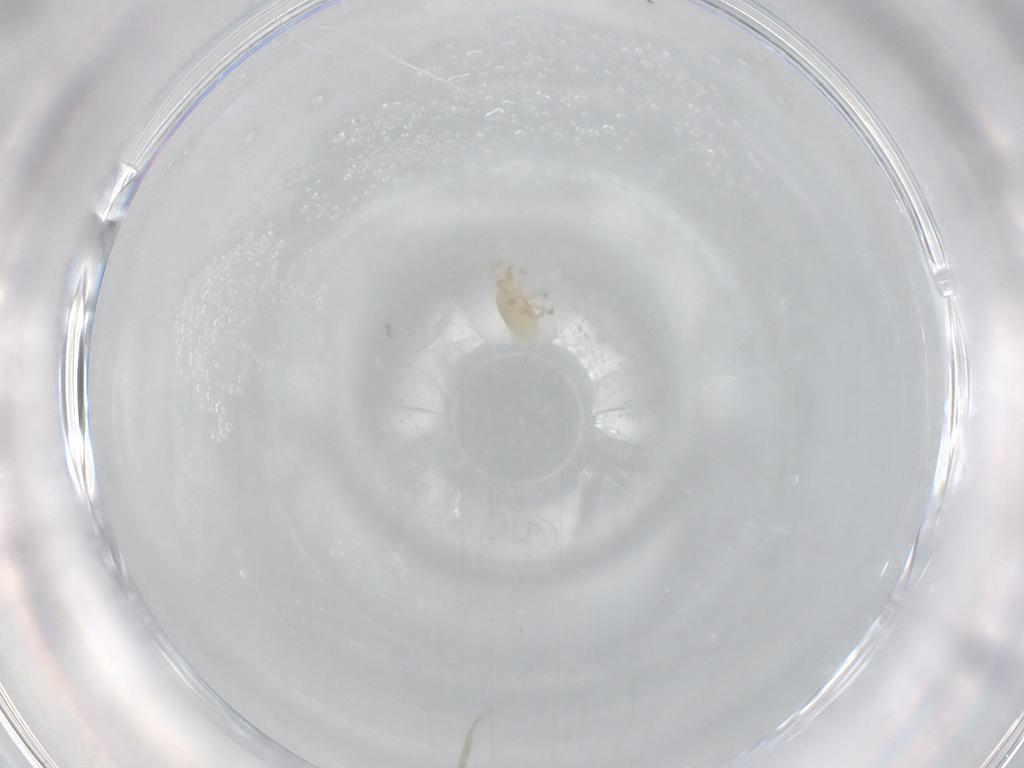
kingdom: Animalia
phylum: Arthropoda
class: Arachnida
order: Mesostigmata
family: Blattisociidae
